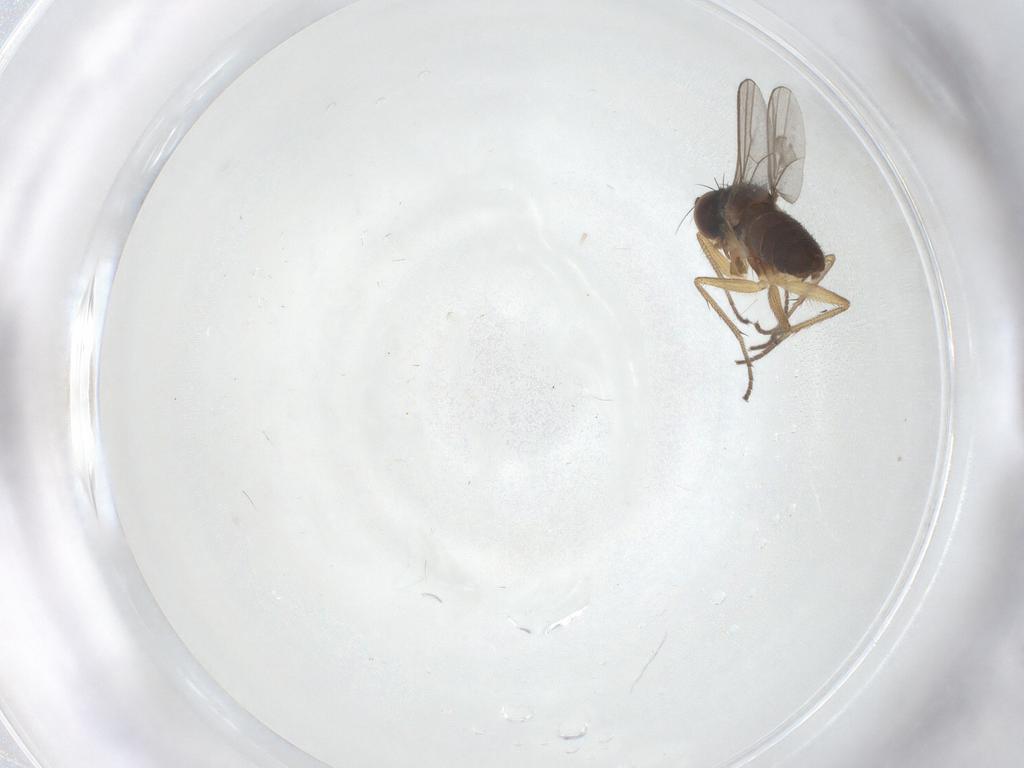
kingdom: Animalia
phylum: Arthropoda
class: Insecta
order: Diptera
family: Dolichopodidae
